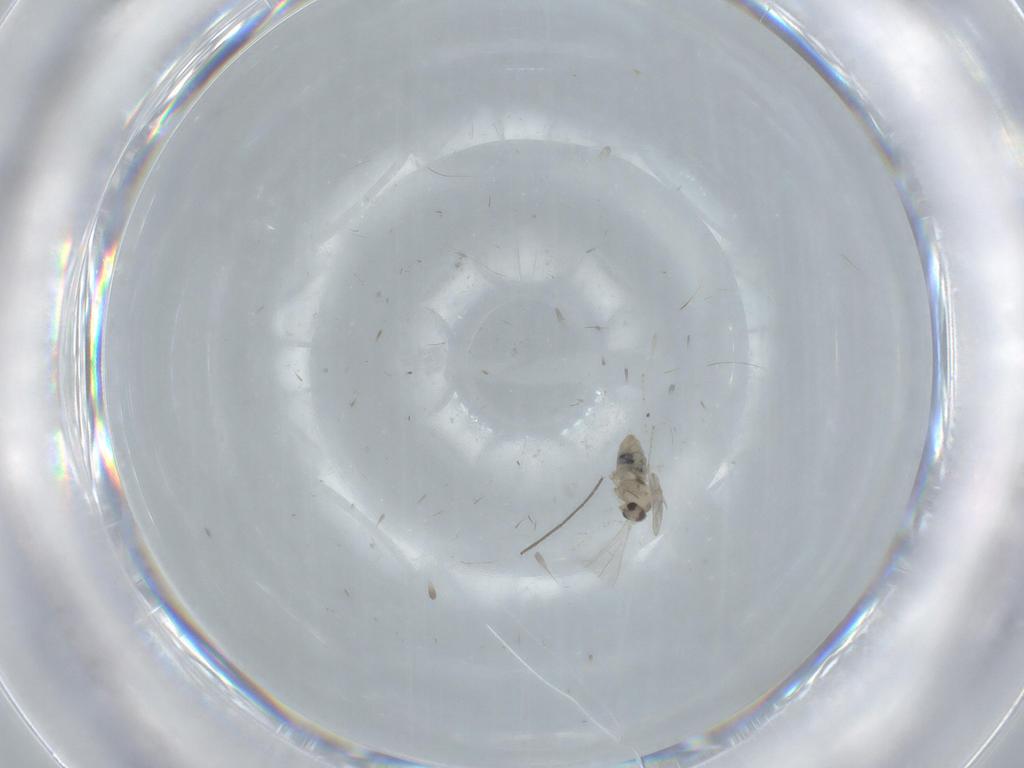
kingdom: Animalia
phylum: Arthropoda
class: Insecta
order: Diptera
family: Chironomidae
